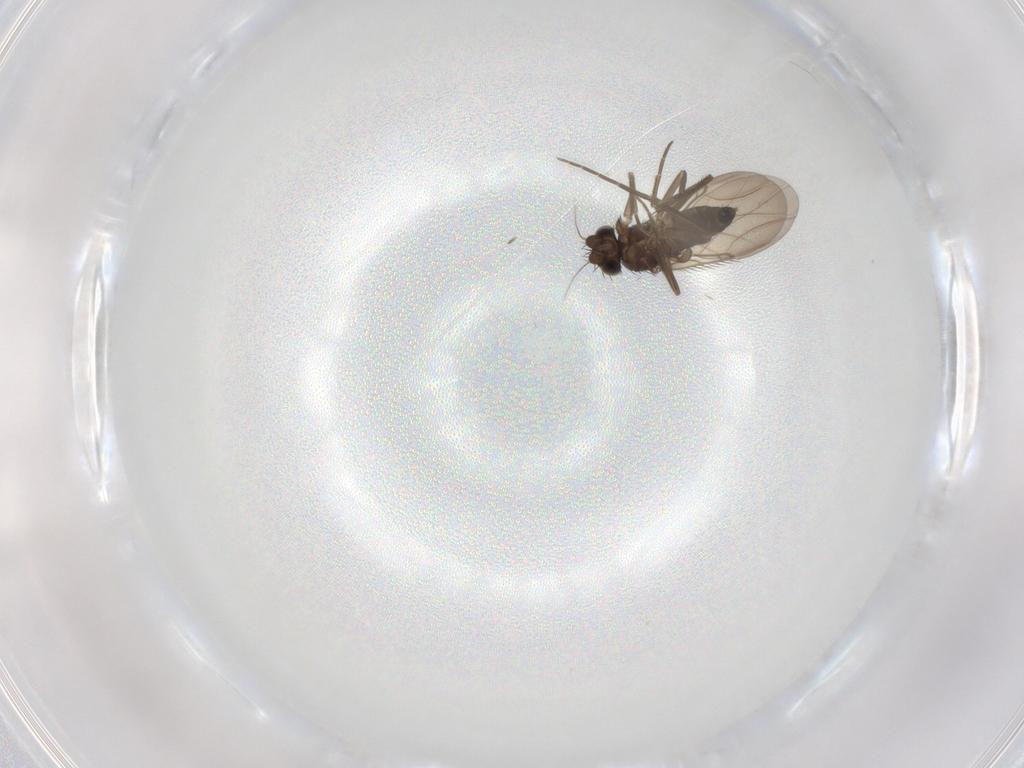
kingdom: Animalia
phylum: Arthropoda
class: Insecta
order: Diptera
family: Phoridae
